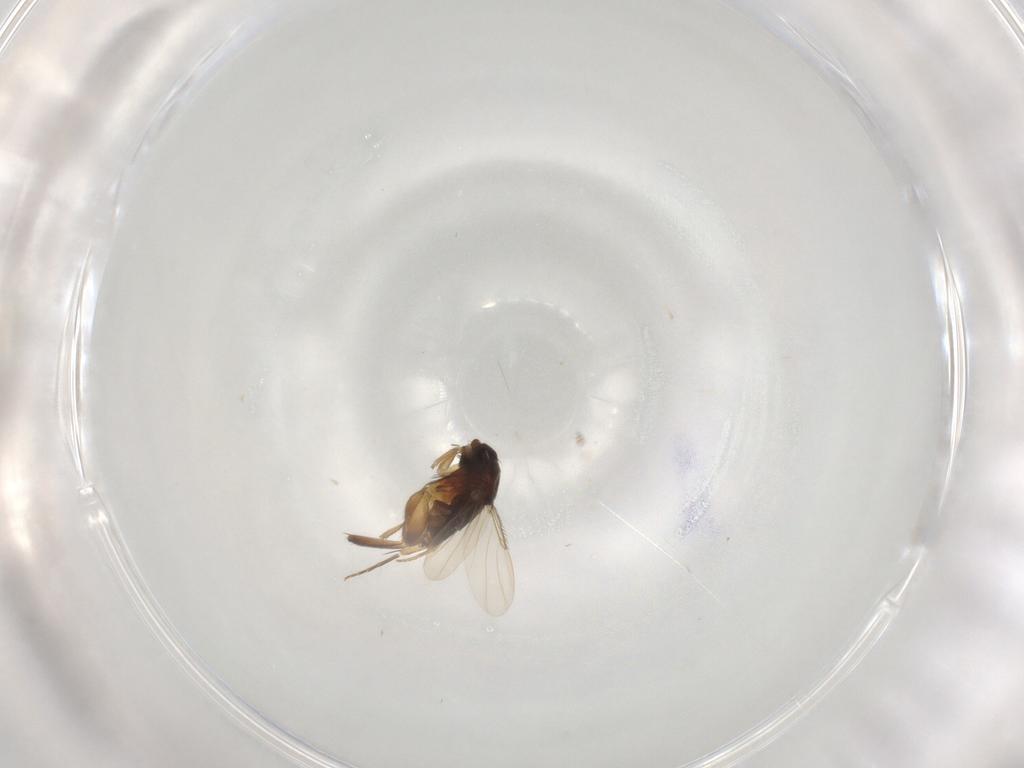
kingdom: Animalia
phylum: Arthropoda
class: Insecta
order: Diptera
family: Phoridae
